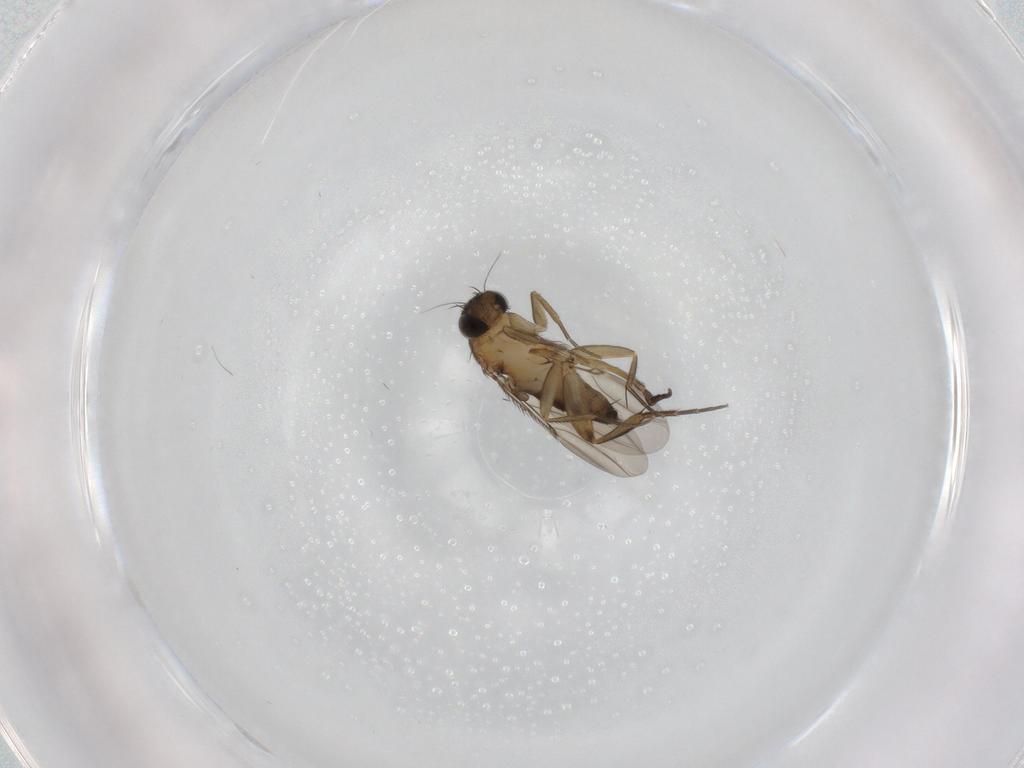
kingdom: Animalia
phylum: Arthropoda
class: Insecta
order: Diptera
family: Phoridae
